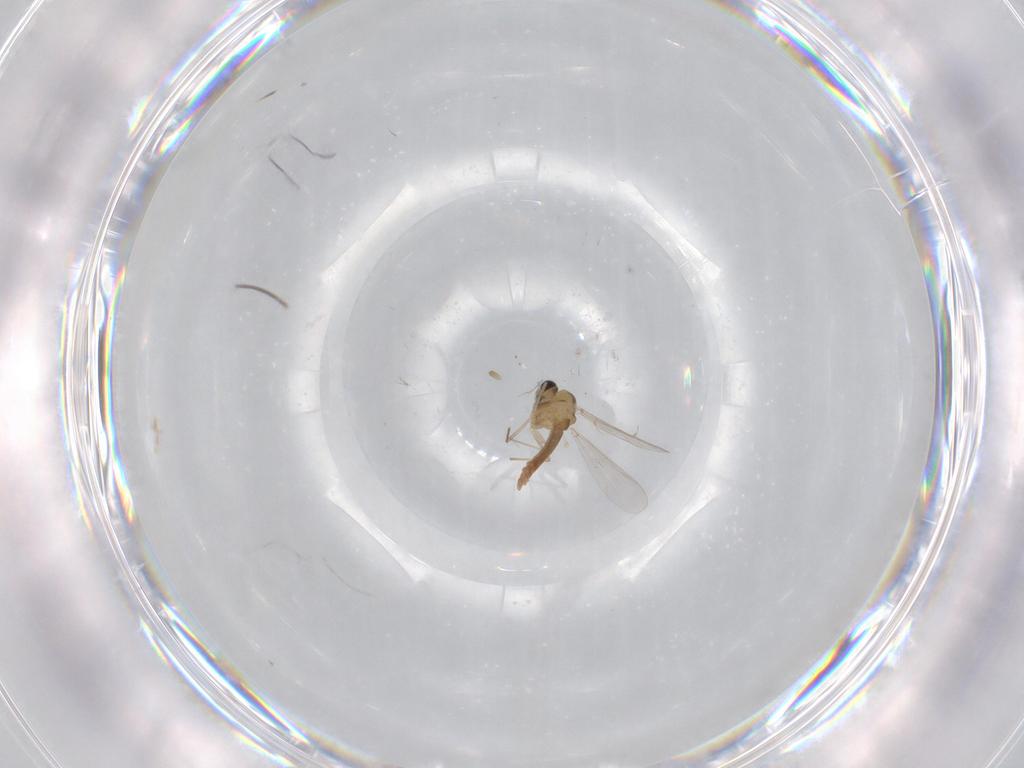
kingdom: Animalia
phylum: Arthropoda
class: Insecta
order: Diptera
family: Chironomidae
